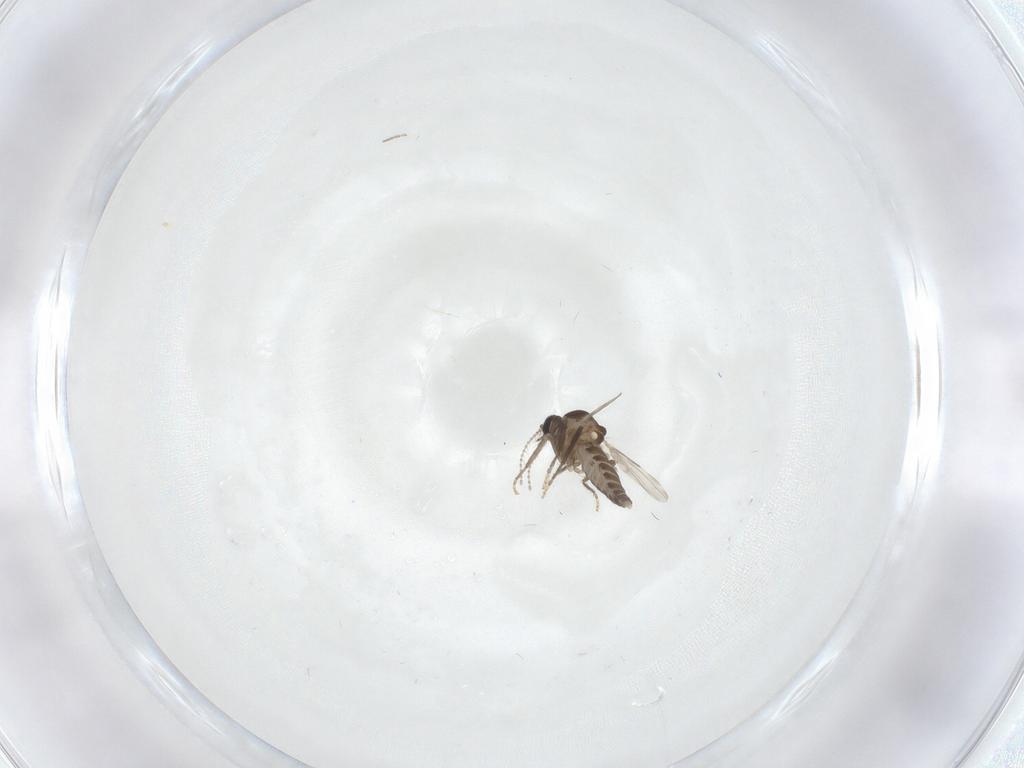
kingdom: Animalia
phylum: Arthropoda
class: Insecta
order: Diptera
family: Ceratopogonidae
